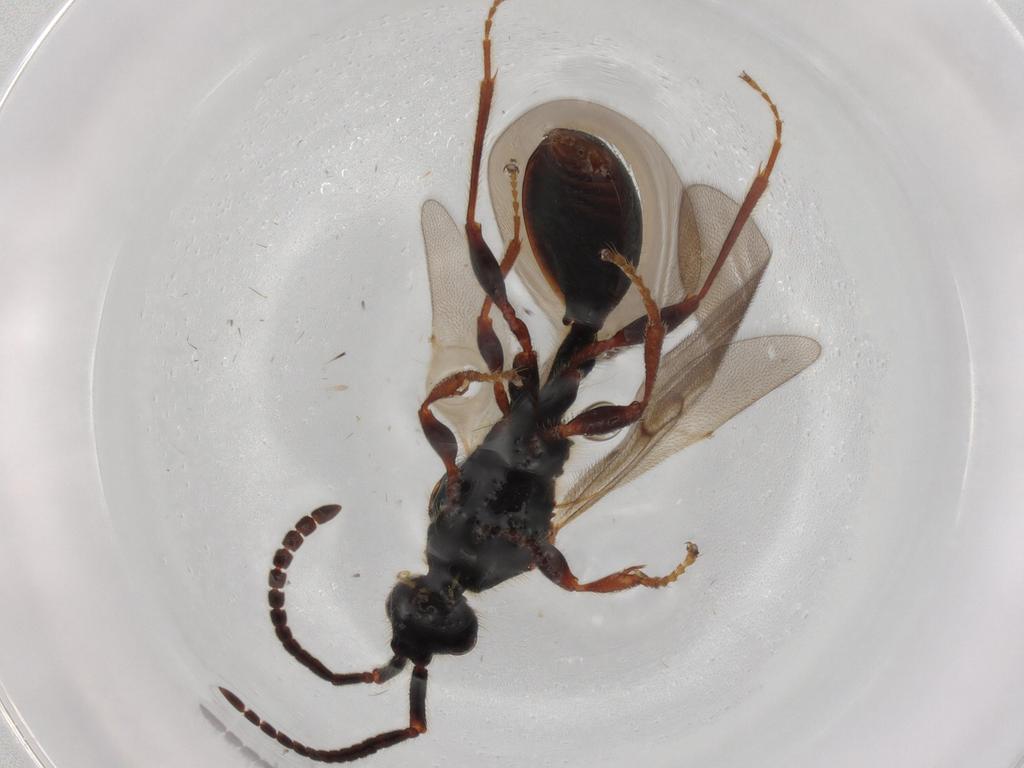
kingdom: Animalia
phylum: Arthropoda
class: Insecta
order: Hymenoptera
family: Diapriidae
